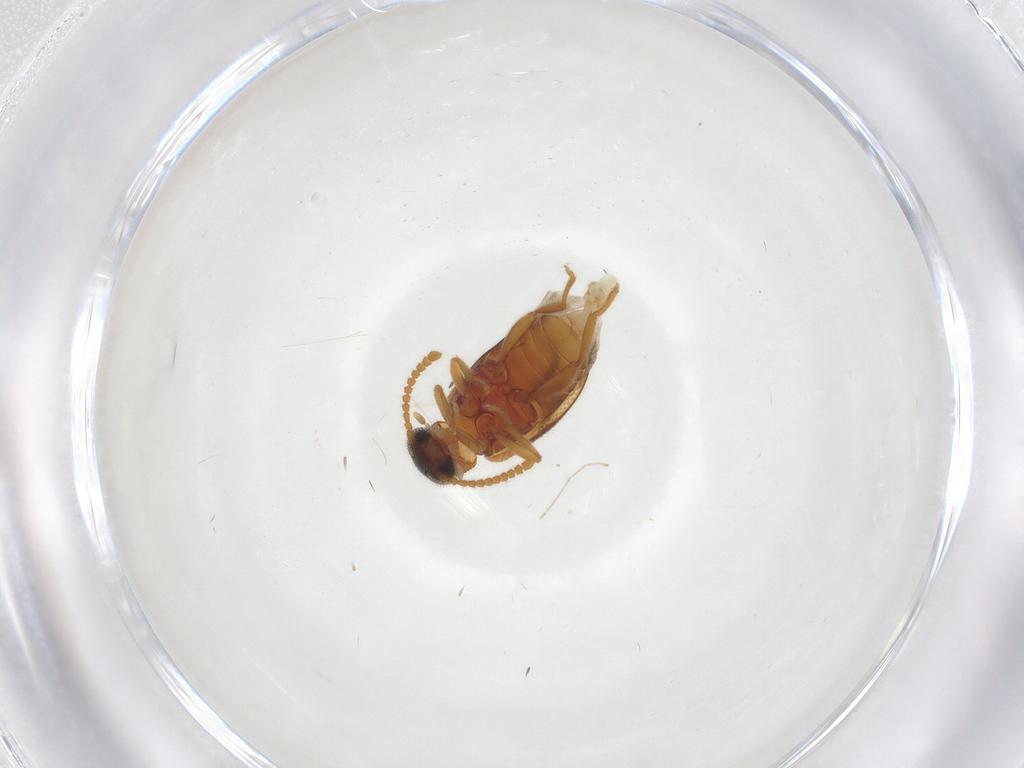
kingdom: Animalia
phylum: Arthropoda
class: Insecta
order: Coleoptera
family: Aderidae
